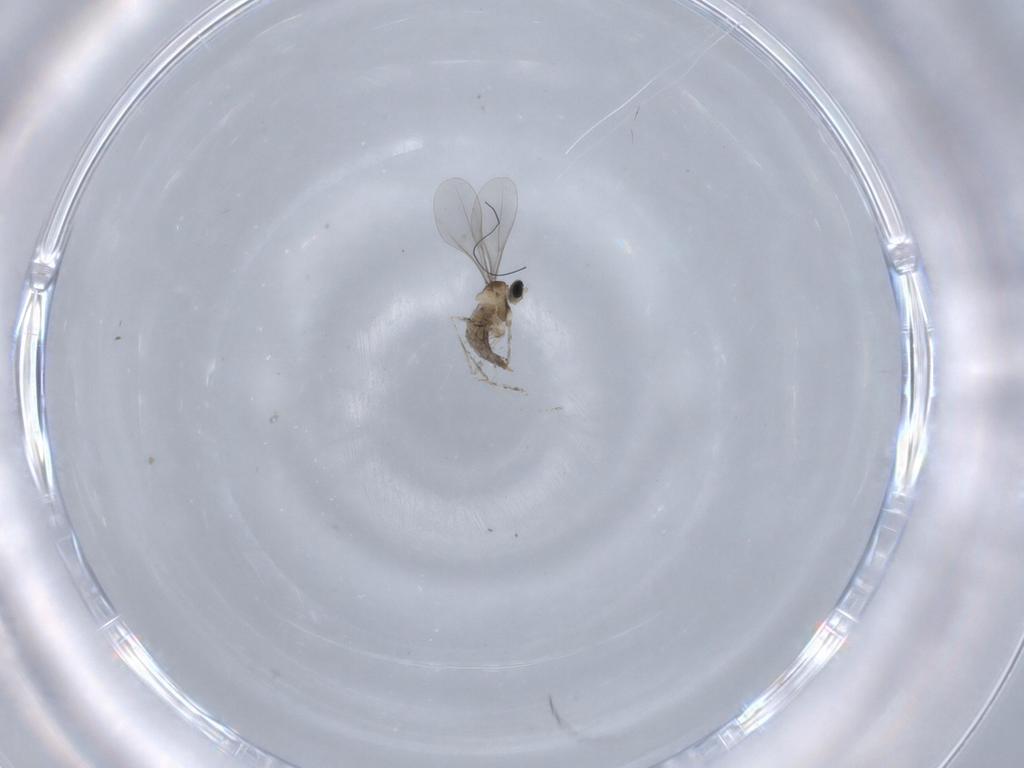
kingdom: Animalia
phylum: Arthropoda
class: Insecta
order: Diptera
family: Cecidomyiidae
